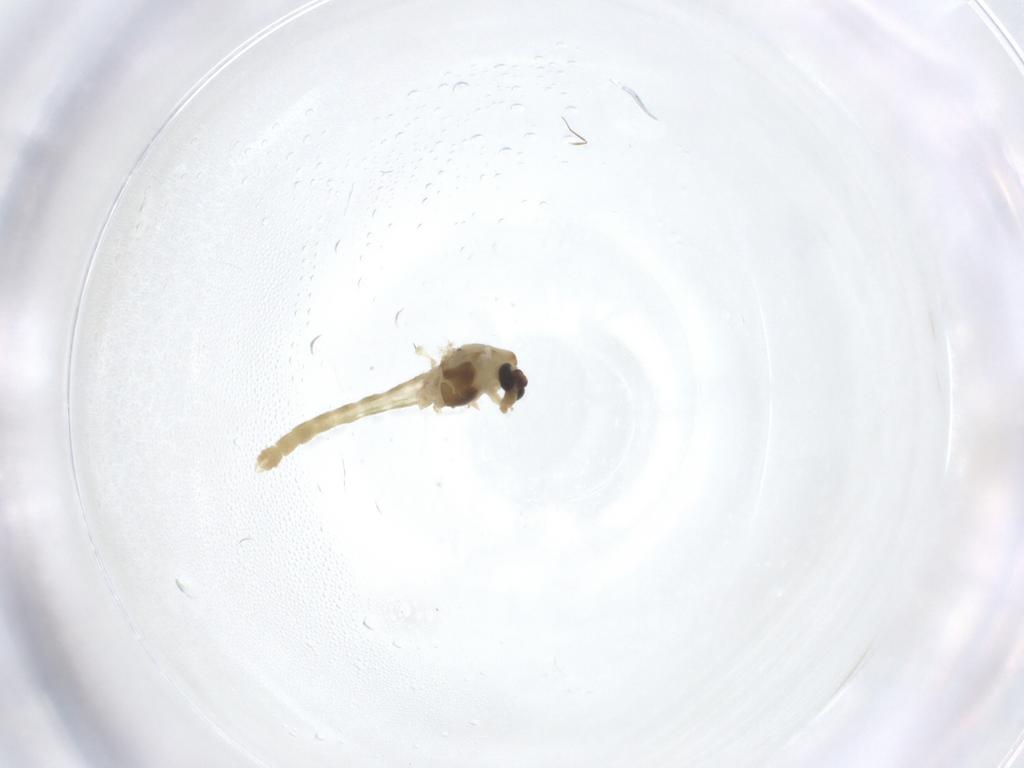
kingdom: Animalia
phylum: Arthropoda
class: Insecta
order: Diptera
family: Chironomidae
